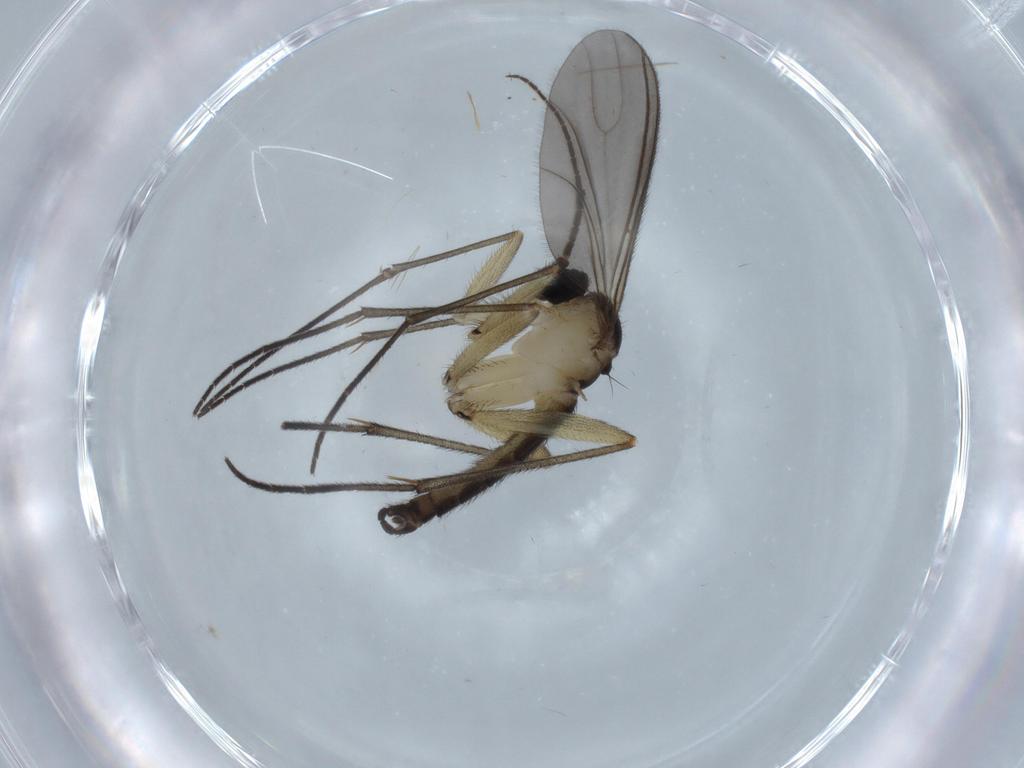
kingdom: Animalia
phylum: Arthropoda
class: Insecta
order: Diptera
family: Sciaridae
